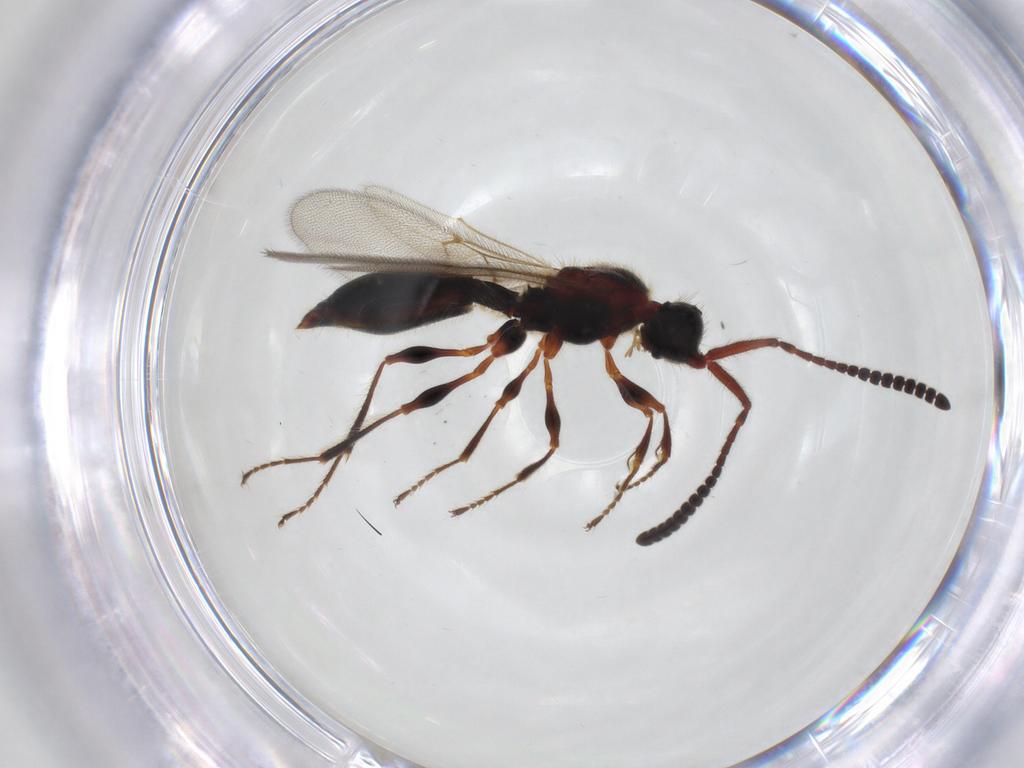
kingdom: Animalia
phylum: Arthropoda
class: Insecta
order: Hymenoptera
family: Diapriidae
